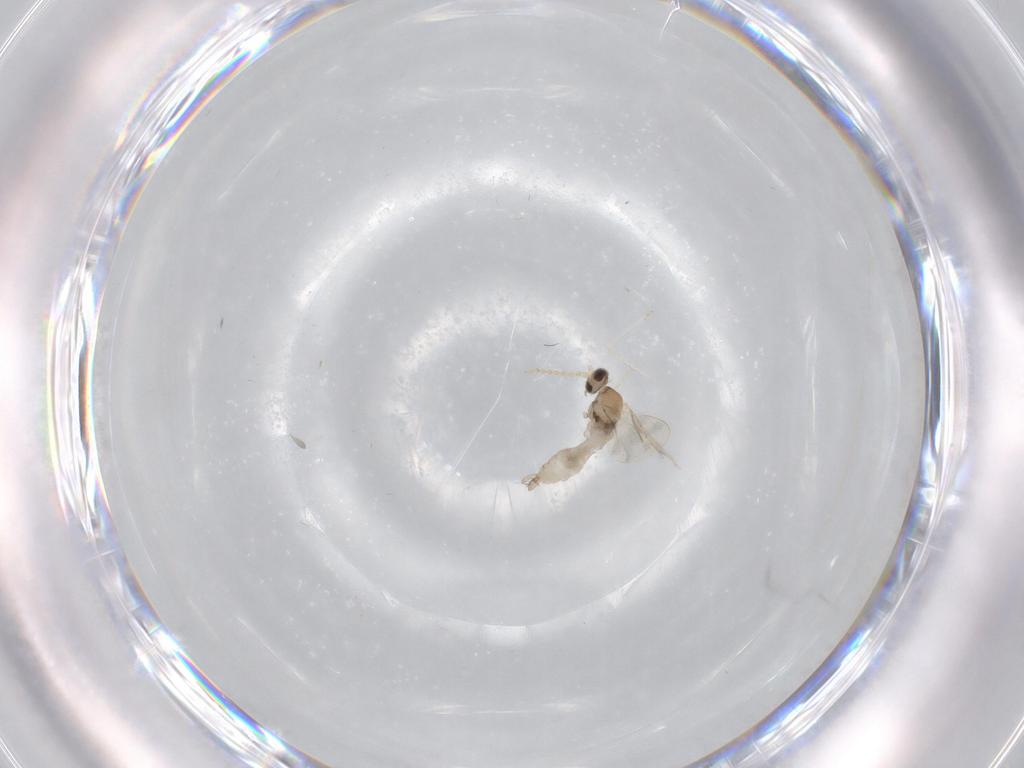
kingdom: Animalia
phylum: Arthropoda
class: Insecta
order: Diptera
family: Cecidomyiidae
